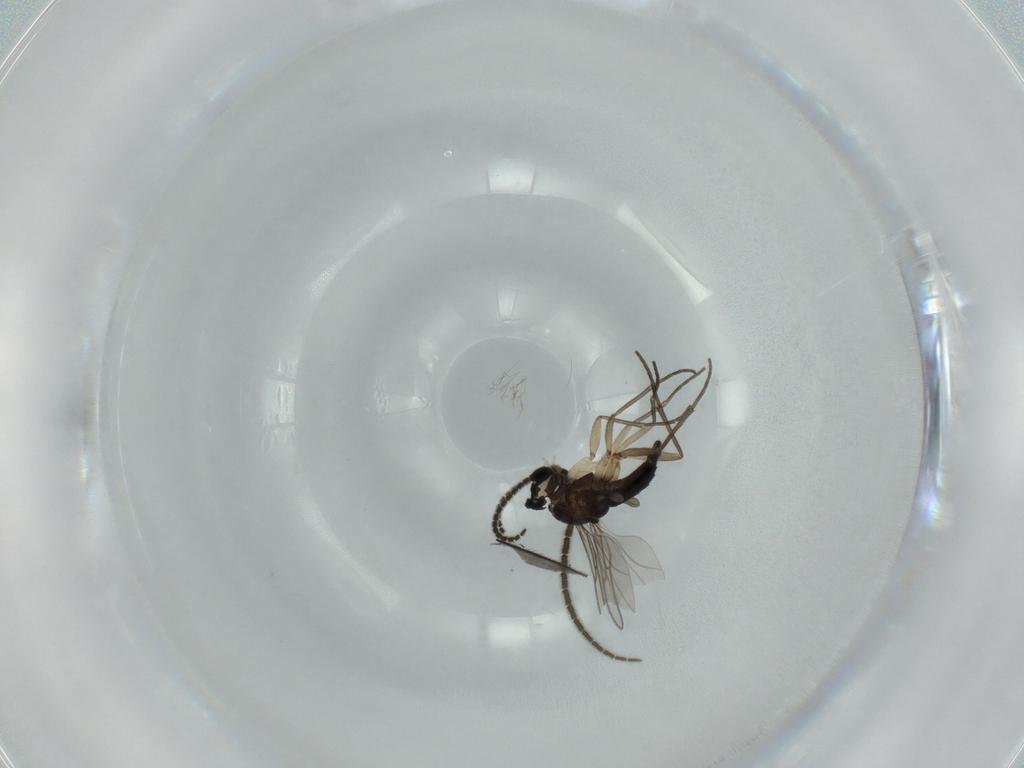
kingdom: Animalia
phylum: Arthropoda
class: Insecta
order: Diptera
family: Sciaridae
